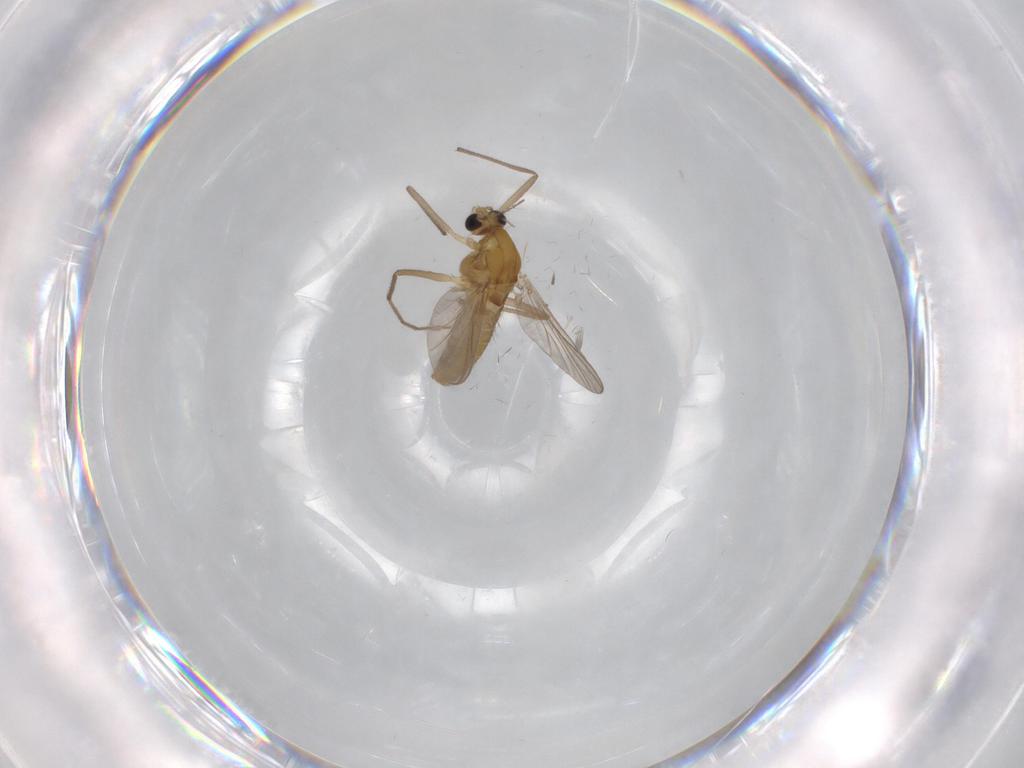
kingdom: Animalia
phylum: Arthropoda
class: Insecta
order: Diptera
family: Chironomidae
